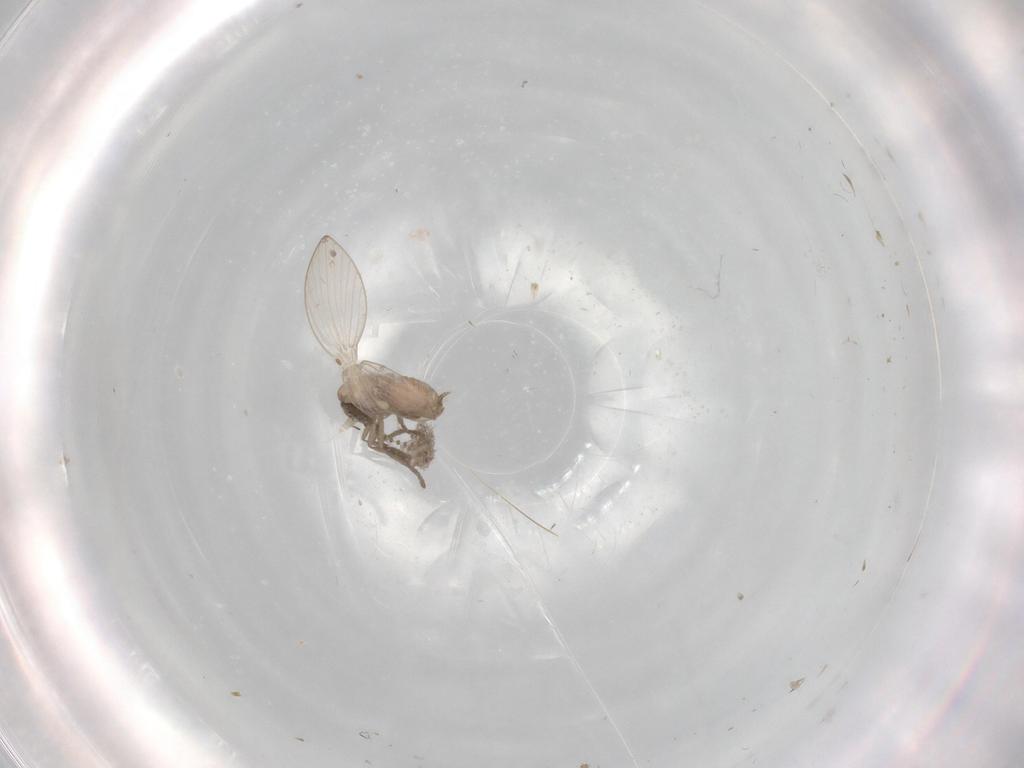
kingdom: Animalia
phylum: Arthropoda
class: Insecta
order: Diptera
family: Psychodidae
